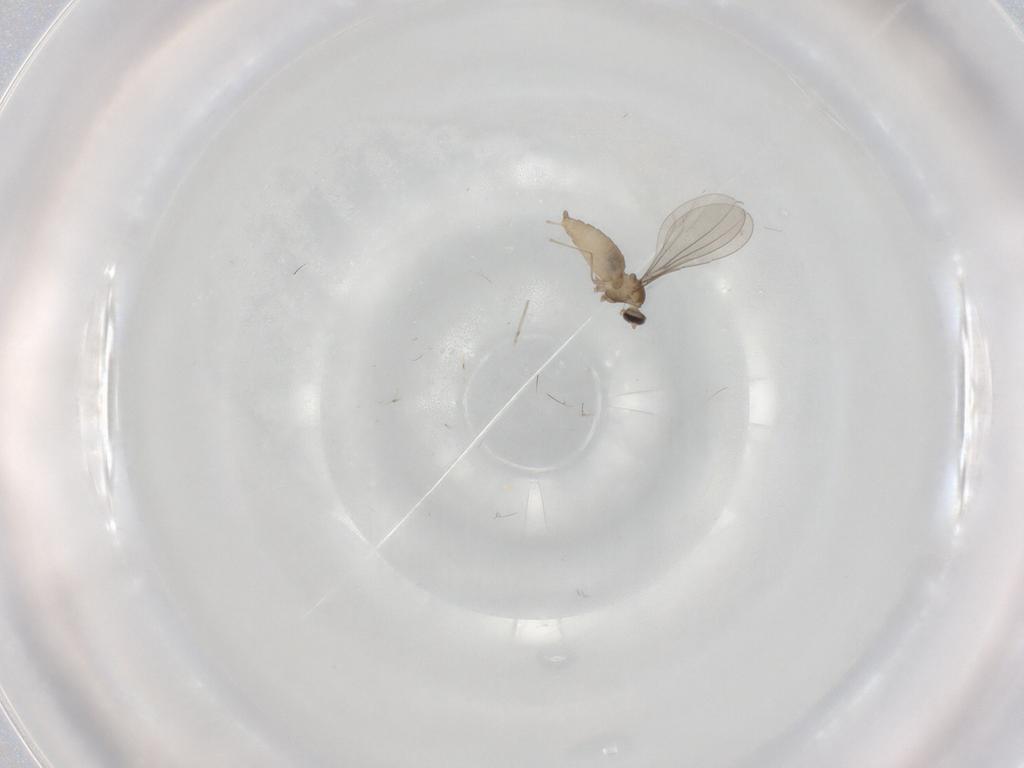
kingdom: Animalia
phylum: Arthropoda
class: Insecta
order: Diptera
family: Cecidomyiidae
